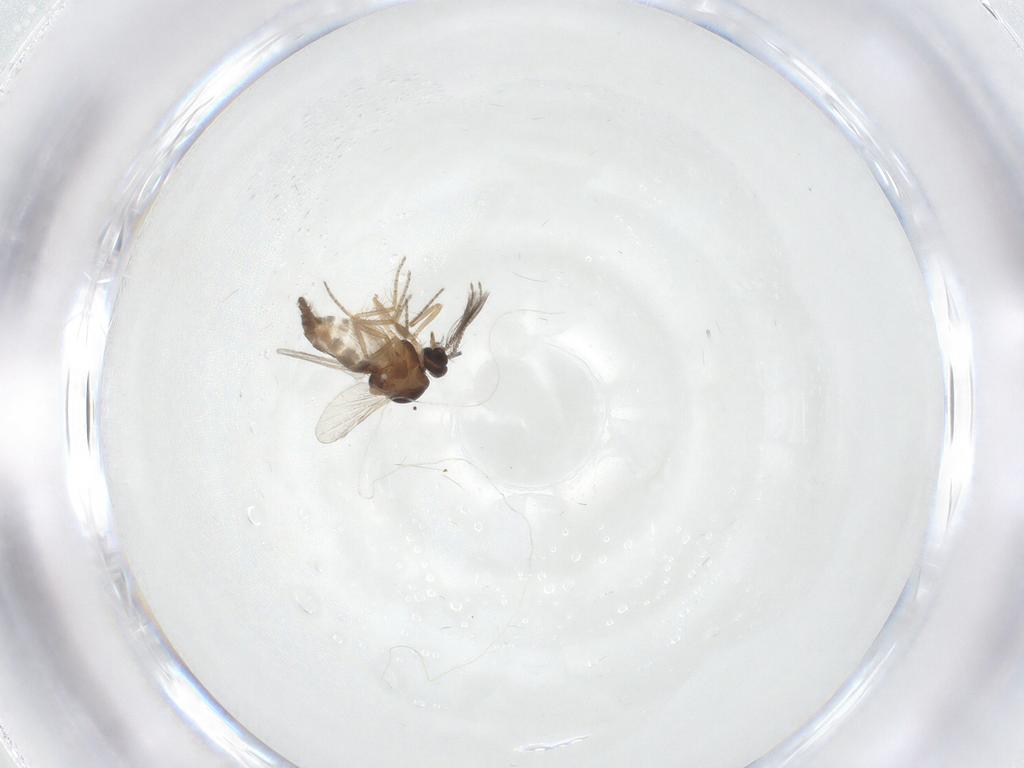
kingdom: Animalia
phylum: Arthropoda
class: Insecta
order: Diptera
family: Ceratopogonidae
